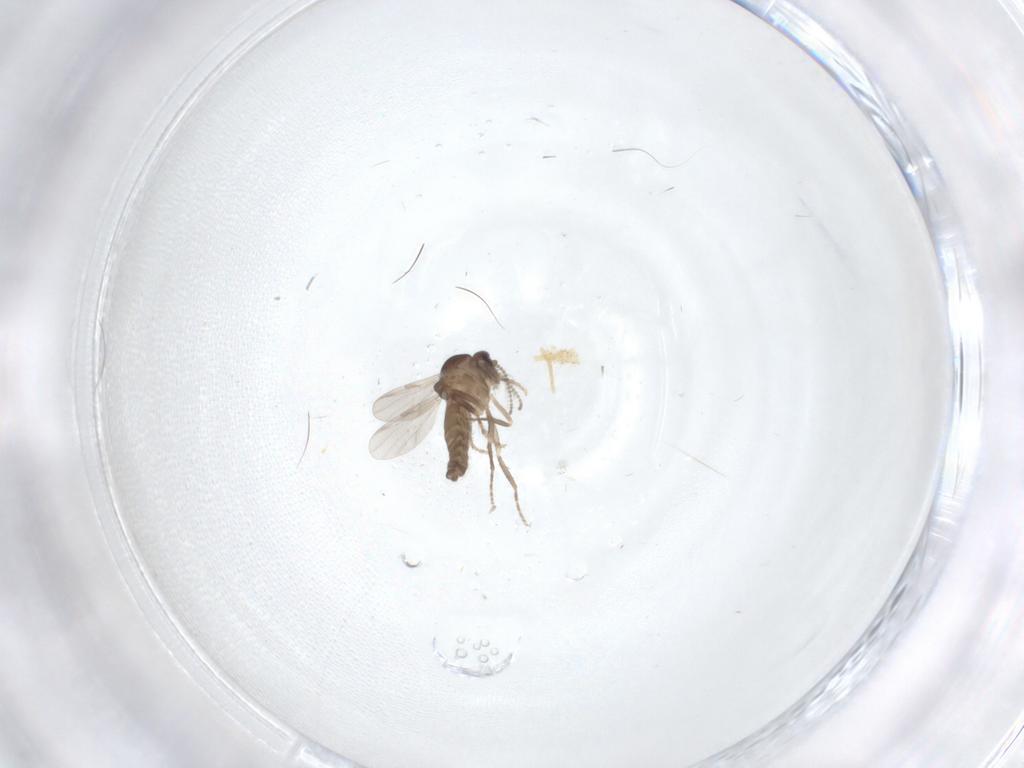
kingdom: Animalia
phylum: Arthropoda
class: Insecta
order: Diptera
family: Ceratopogonidae
